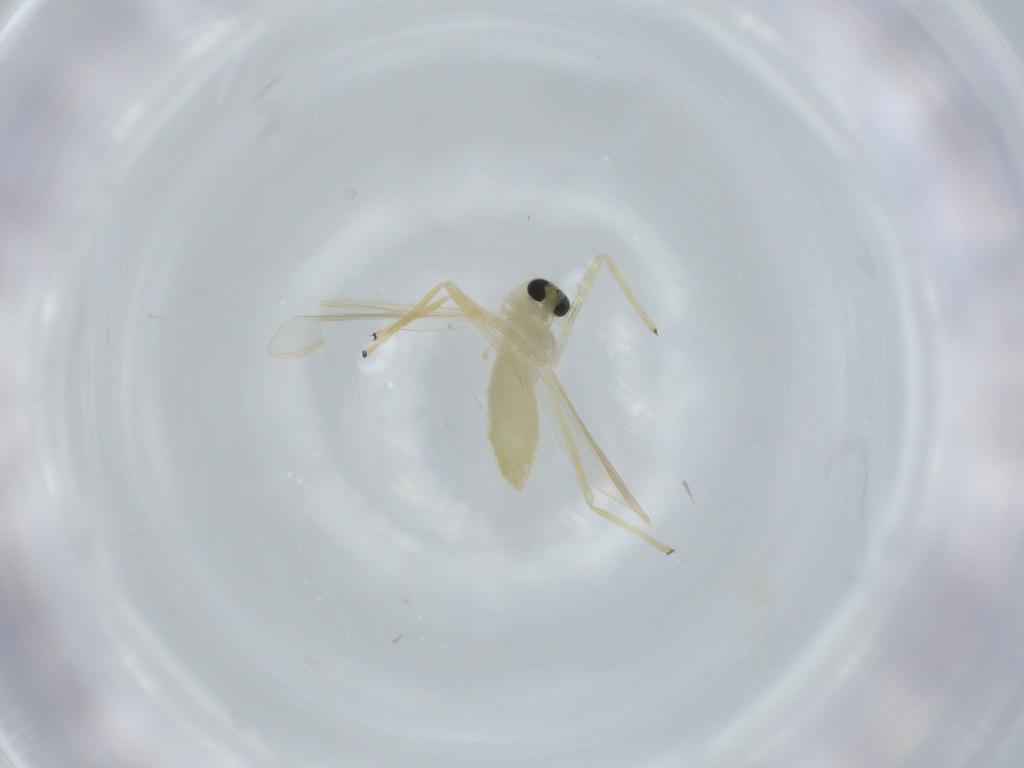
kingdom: Animalia
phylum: Arthropoda
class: Insecta
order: Diptera
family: Chironomidae
